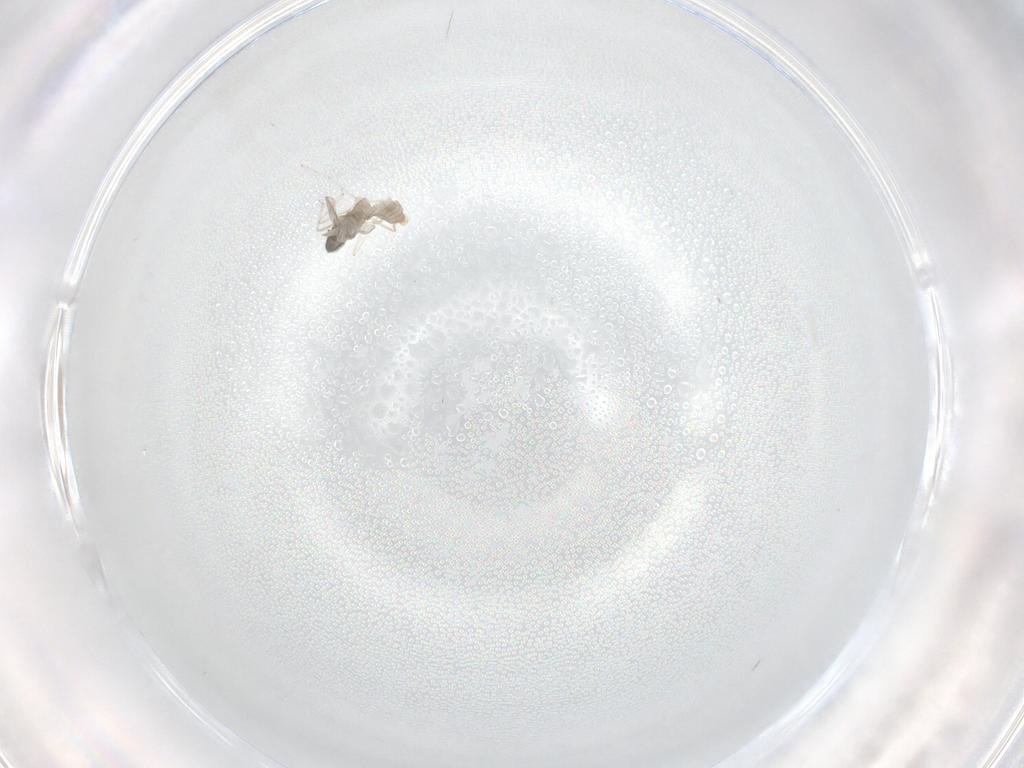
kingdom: Animalia
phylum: Arthropoda
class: Insecta
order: Diptera
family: Cecidomyiidae
